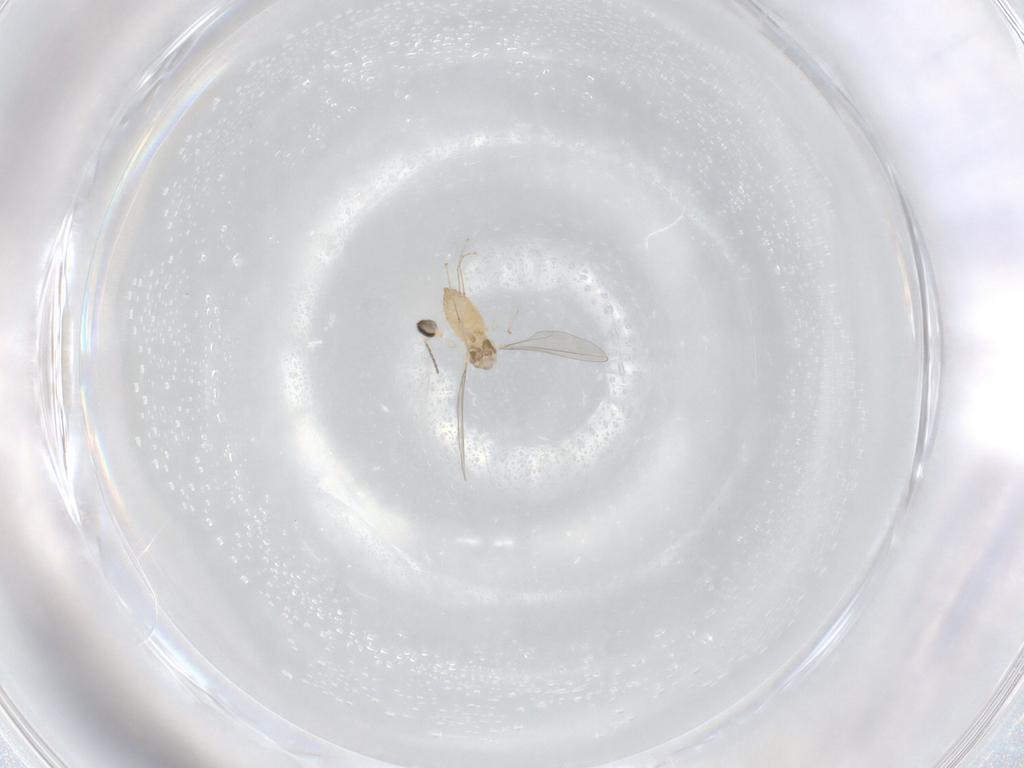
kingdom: Animalia
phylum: Arthropoda
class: Insecta
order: Diptera
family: Cecidomyiidae
